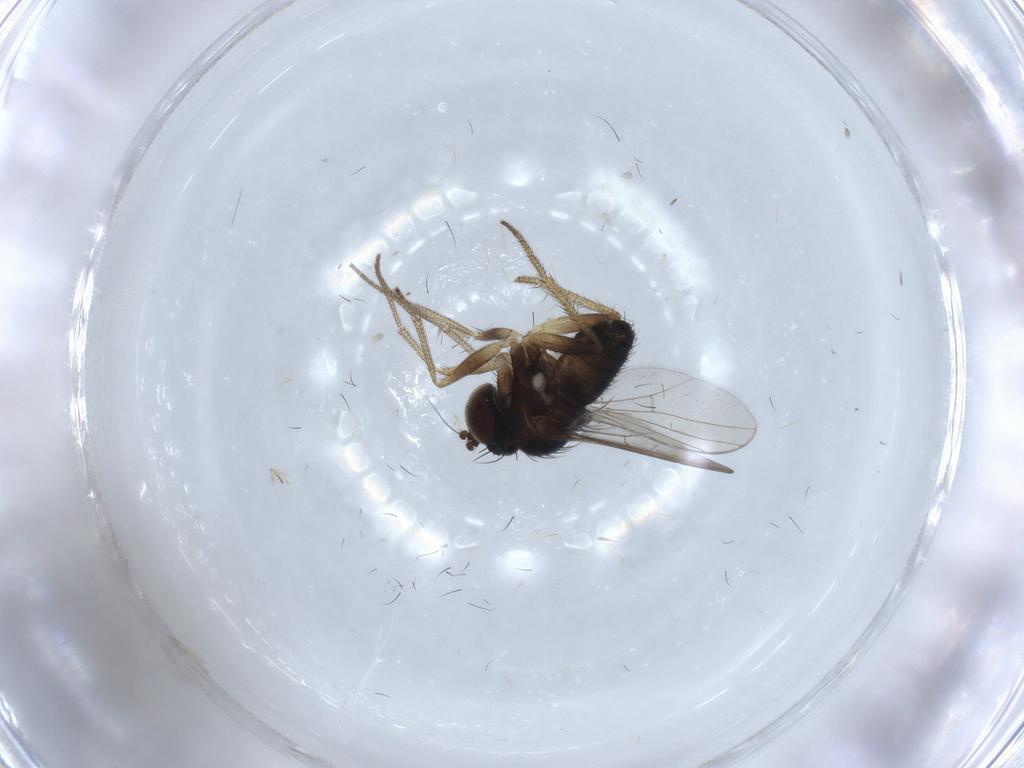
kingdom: Animalia
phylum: Arthropoda
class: Insecta
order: Diptera
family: Dolichopodidae
